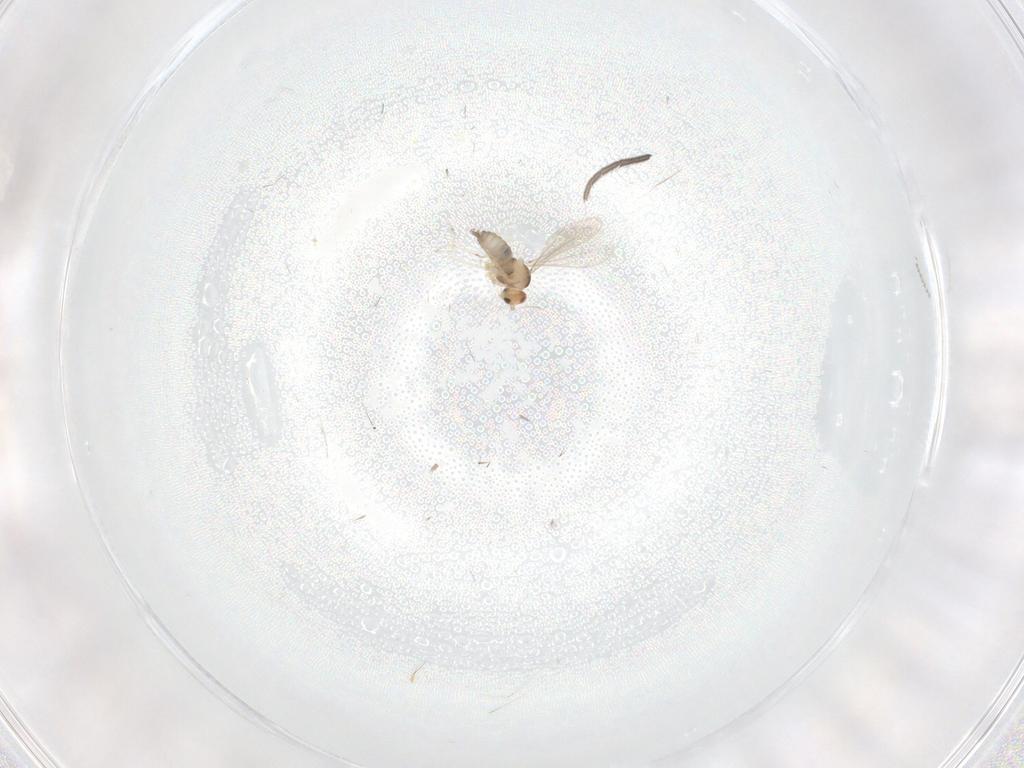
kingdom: Animalia
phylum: Arthropoda
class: Insecta
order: Diptera
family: Cecidomyiidae
